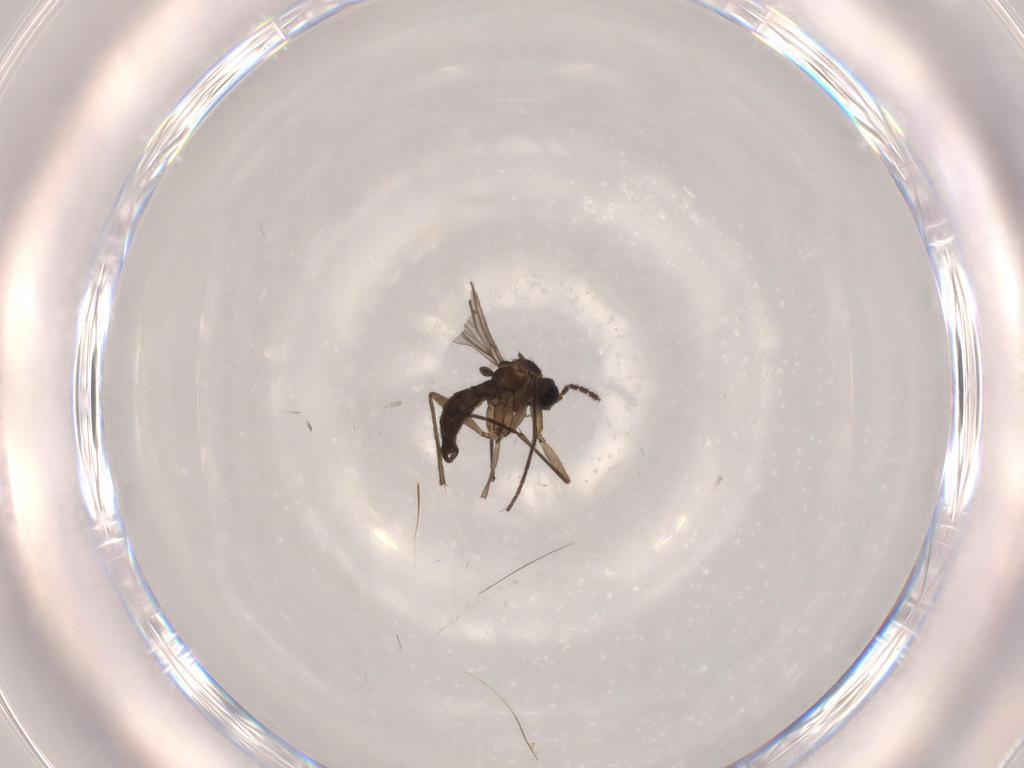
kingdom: Animalia
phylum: Arthropoda
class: Insecta
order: Diptera
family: Sciaridae
